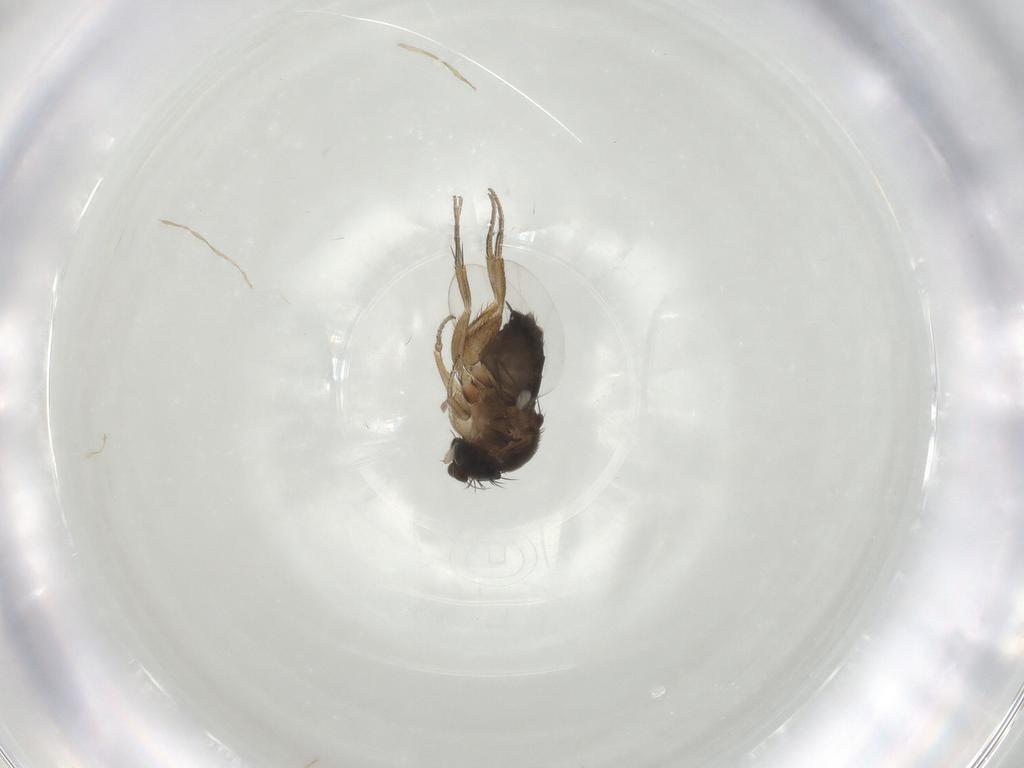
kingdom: Animalia
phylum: Arthropoda
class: Insecta
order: Diptera
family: Phoridae
